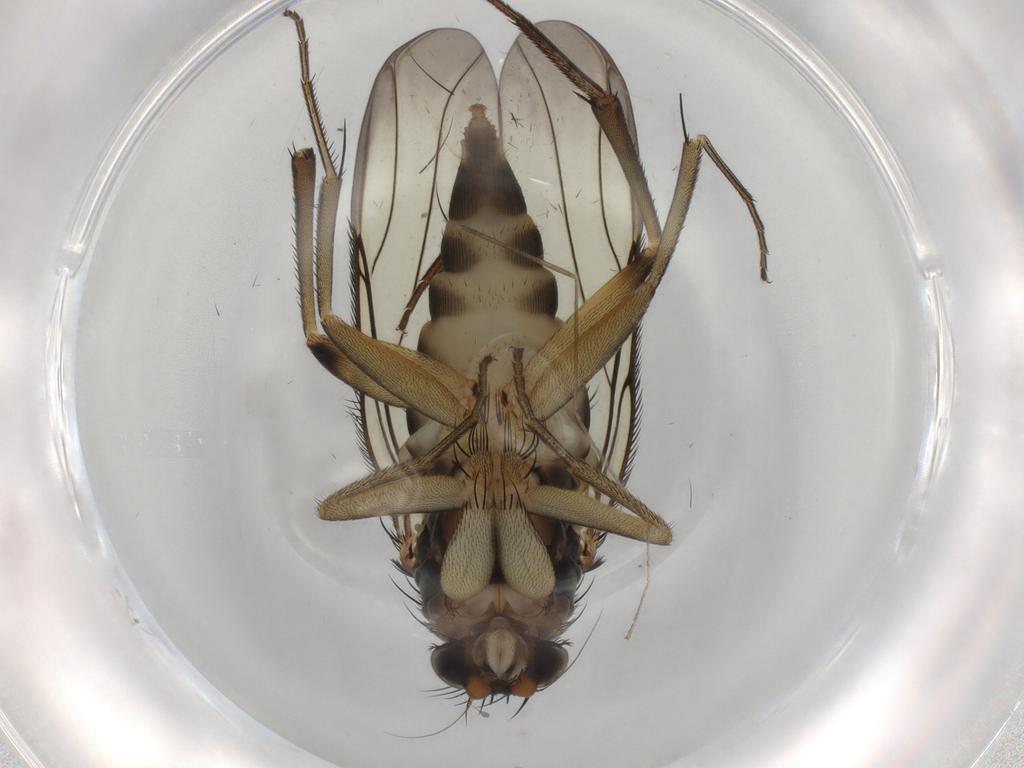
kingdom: Animalia
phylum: Arthropoda
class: Insecta
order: Diptera
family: Phoridae
